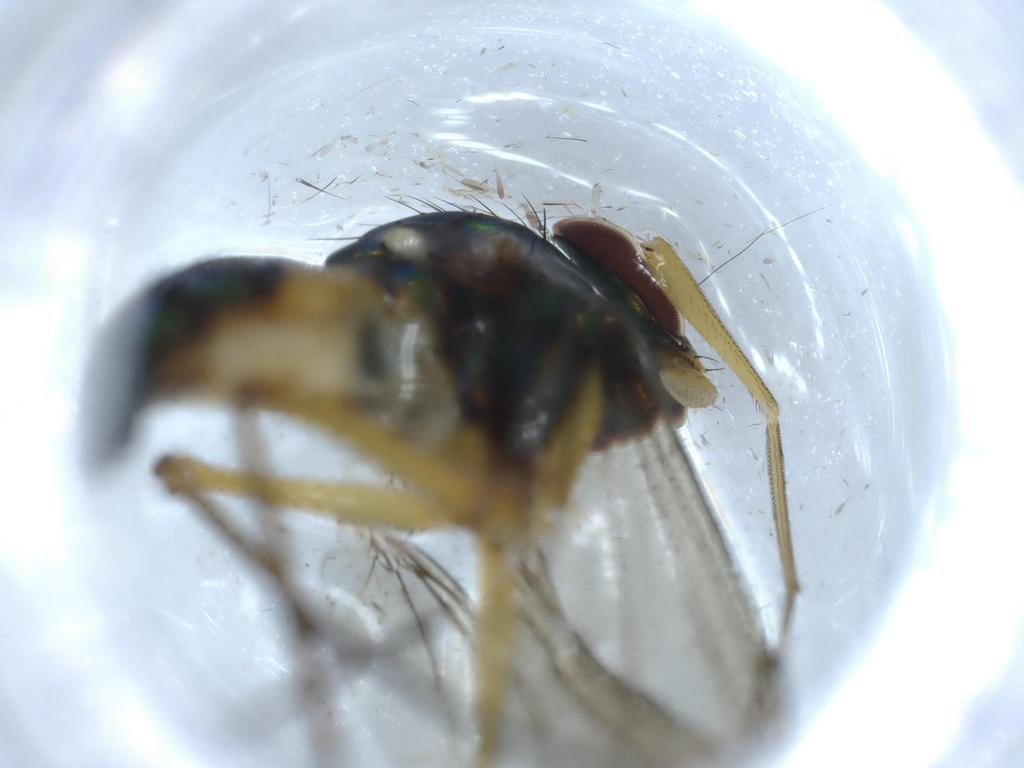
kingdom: Animalia
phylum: Arthropoda
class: Insecta
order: Diptera
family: Dolichopodidae
